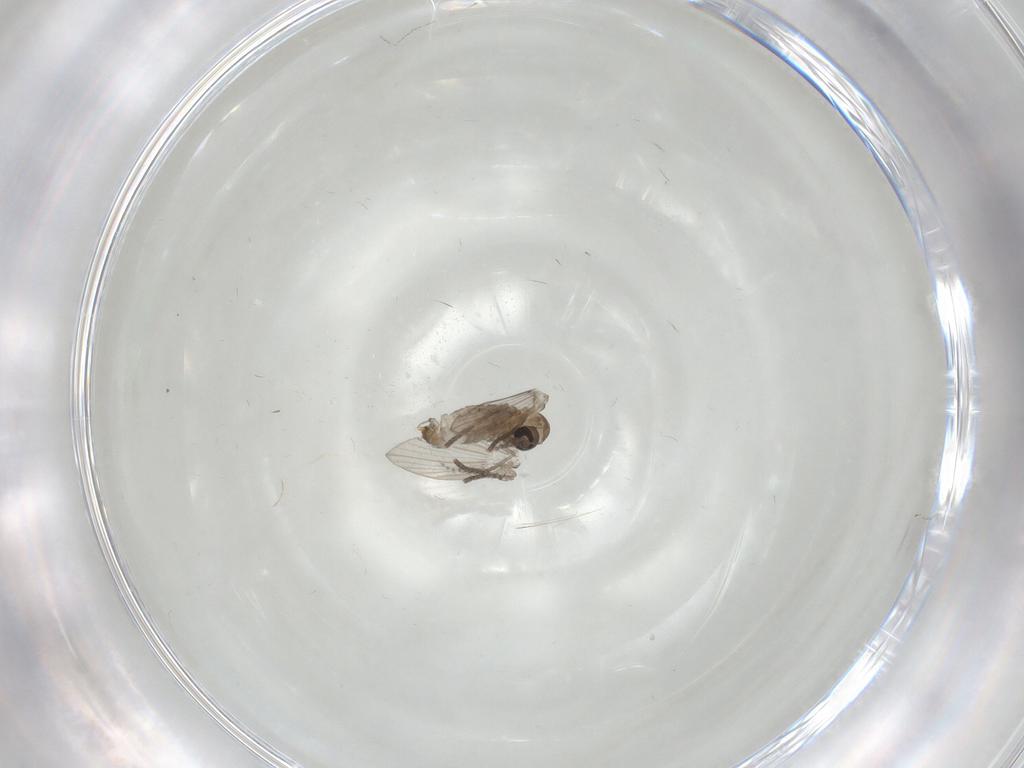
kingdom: Animalia
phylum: Arthropoda
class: Insecta
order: Diptera
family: Psychodidae
